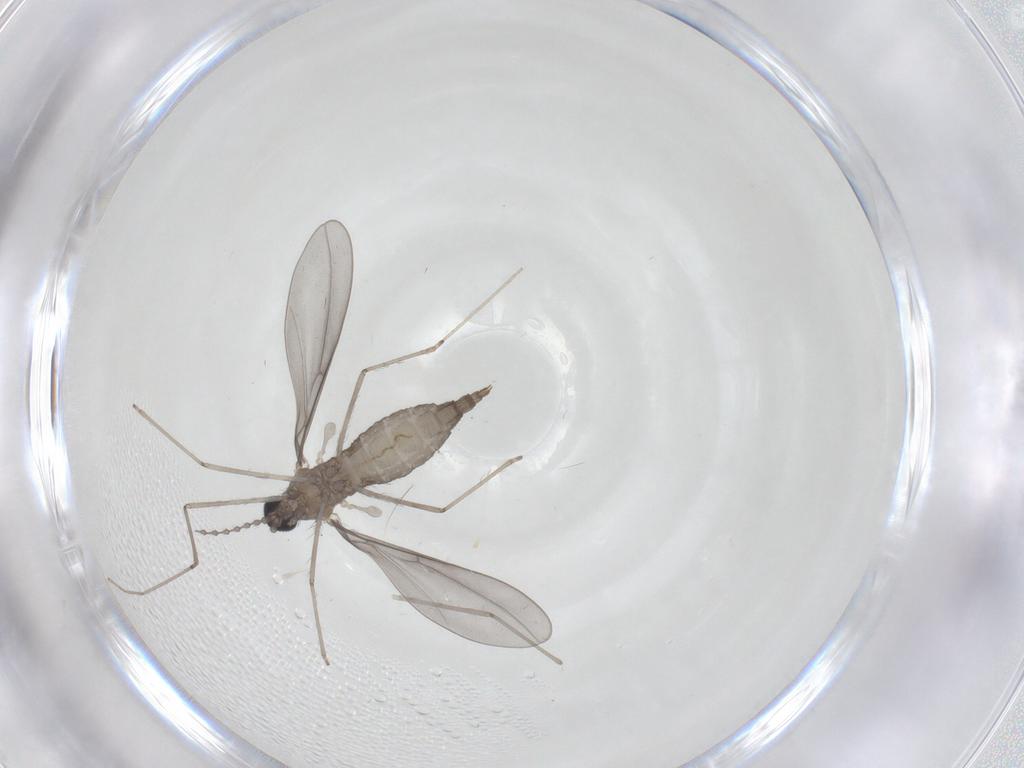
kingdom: Animalia
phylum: Arthropoda
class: Insecta
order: Diptera
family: Cecidomyiidae
